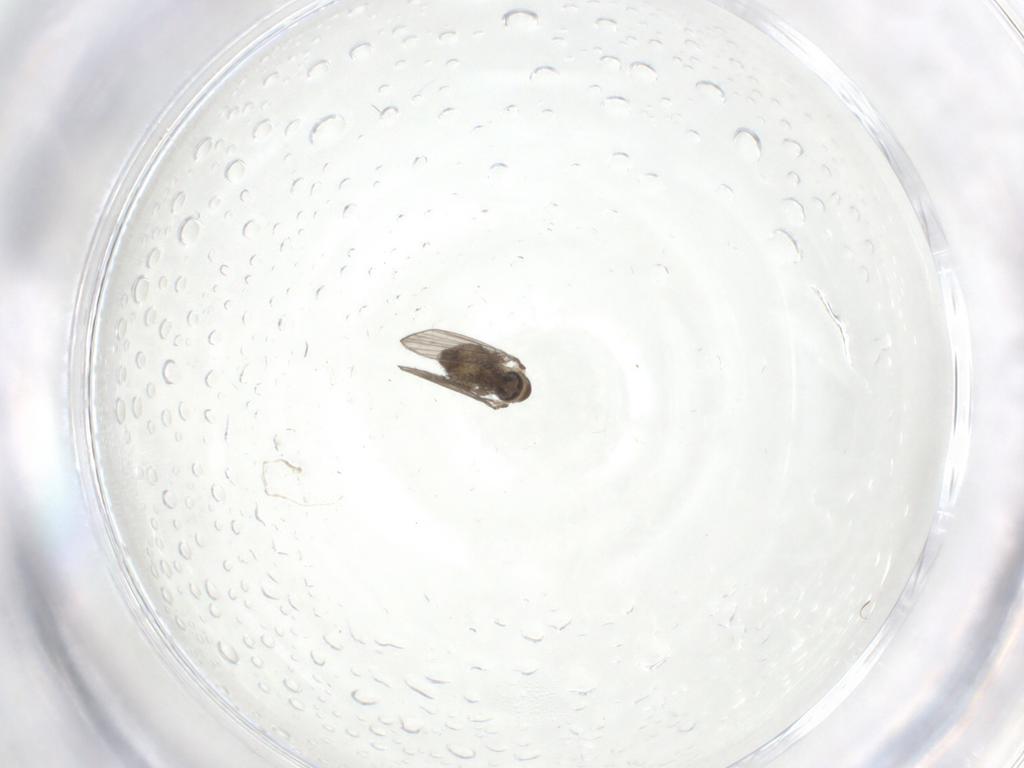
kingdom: Animalia
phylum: Arthropoda
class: Insecta
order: Diptera
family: Psychodidae
